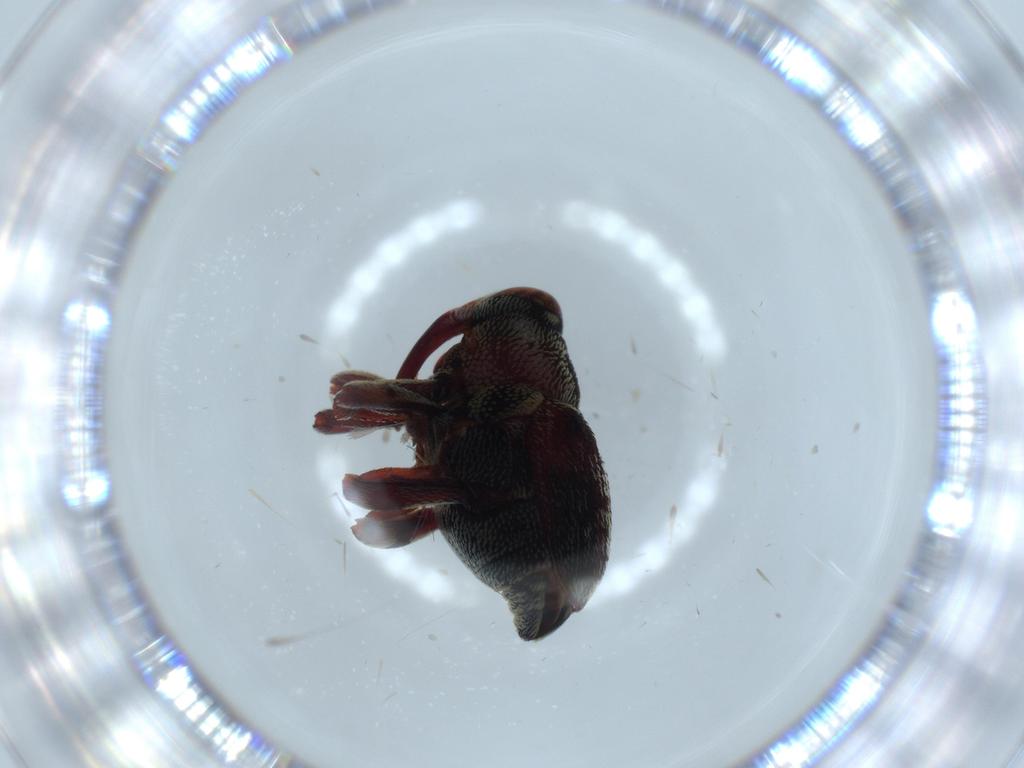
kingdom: Animalia
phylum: Arthropoda
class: Insecta
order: Coleoptera
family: Curculionidae
